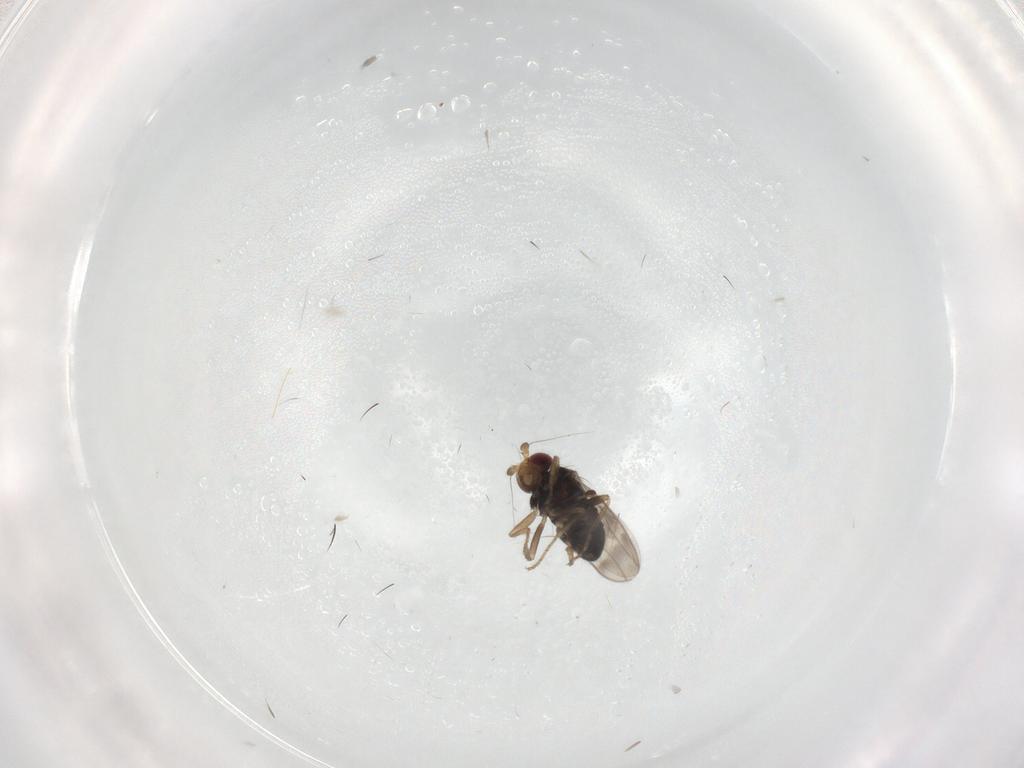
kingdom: Animalia
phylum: Arthropoda
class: Insecta
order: Diptera
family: Sphaeroceridae
